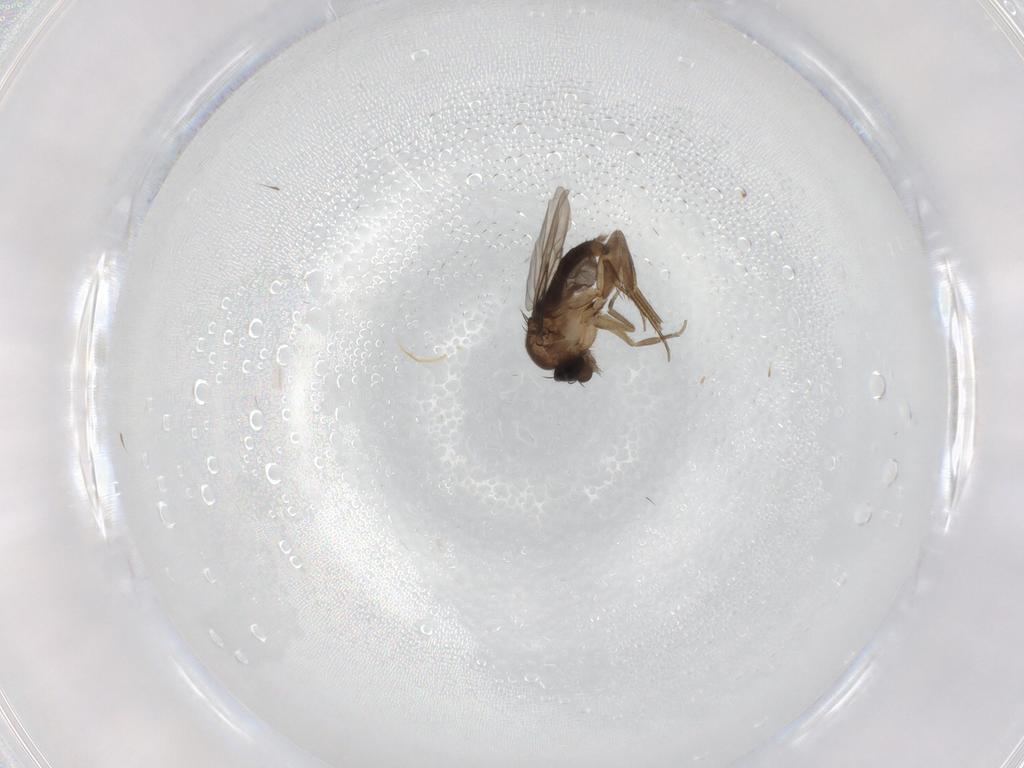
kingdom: Animalia
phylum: Arthropoda
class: Insecta
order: Diptera
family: Phoridae
